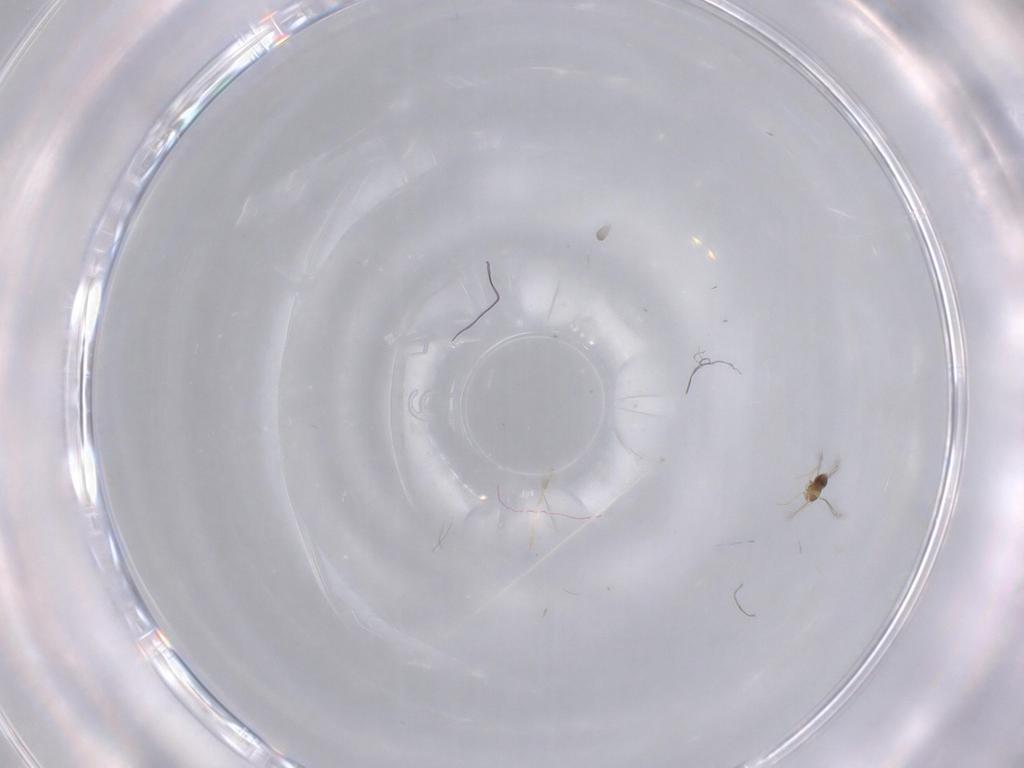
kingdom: Animalia
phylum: Arthropoda
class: Insecta
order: Hymenoptera
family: Mymaridae
